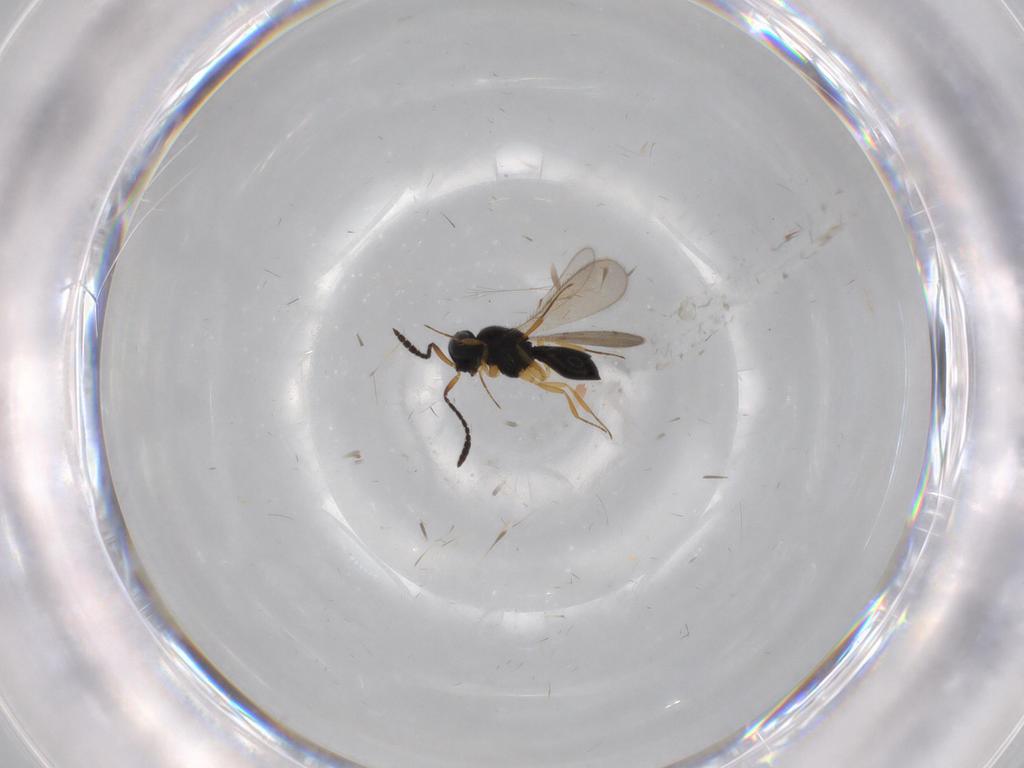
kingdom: Animalia
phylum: Arthropoda
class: Insecta
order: Hymenoptera
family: Scelionidae
